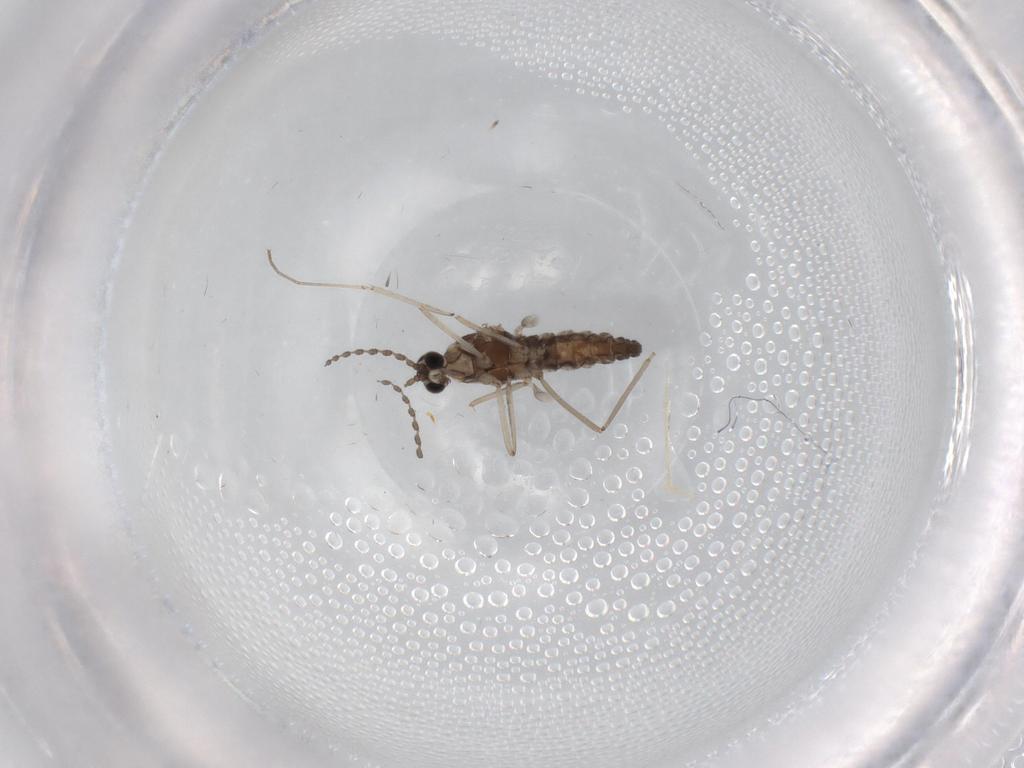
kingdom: Animalia
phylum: Arthropoda
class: Insecta
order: Diptera
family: Cecidomyiidae
